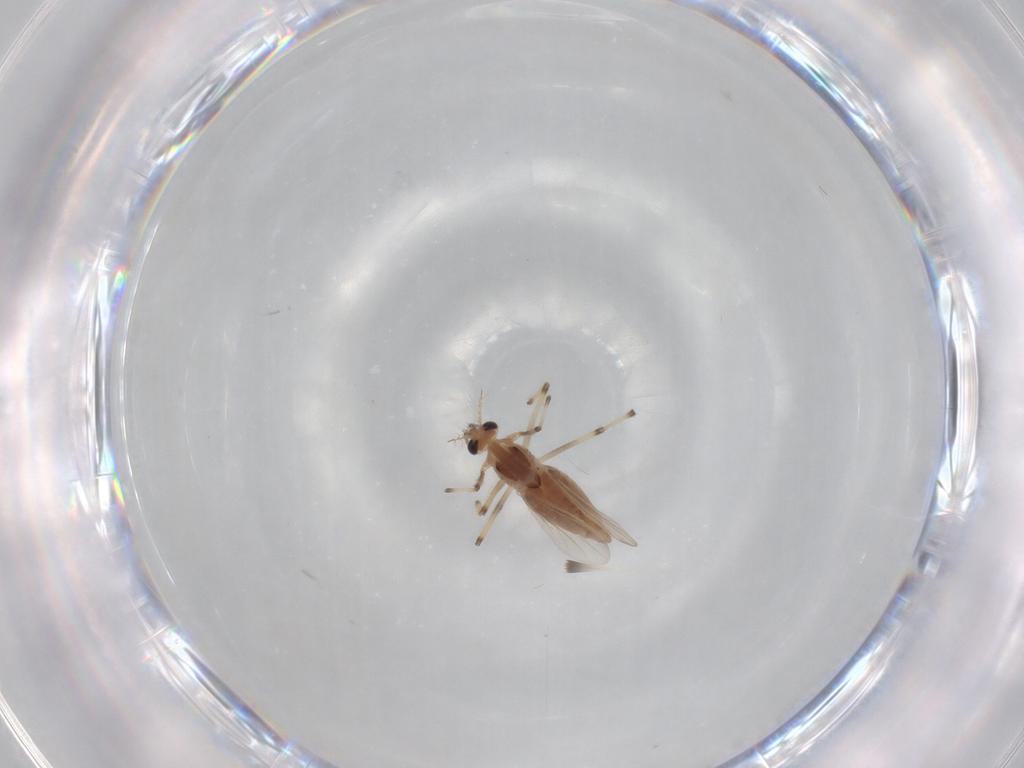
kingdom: Animalia
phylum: Arthropoda
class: Insecta
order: Diptera
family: Chironomidae
